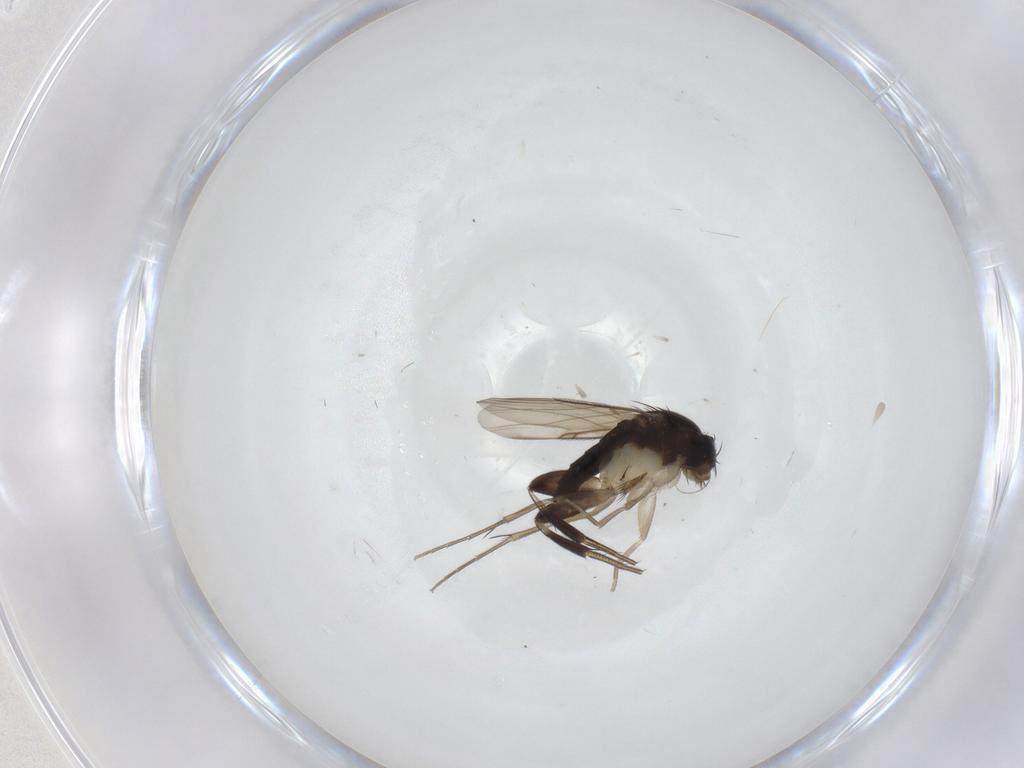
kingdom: Animalia
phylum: Arthropoda
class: Insecta
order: Diptera
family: Phoridae
